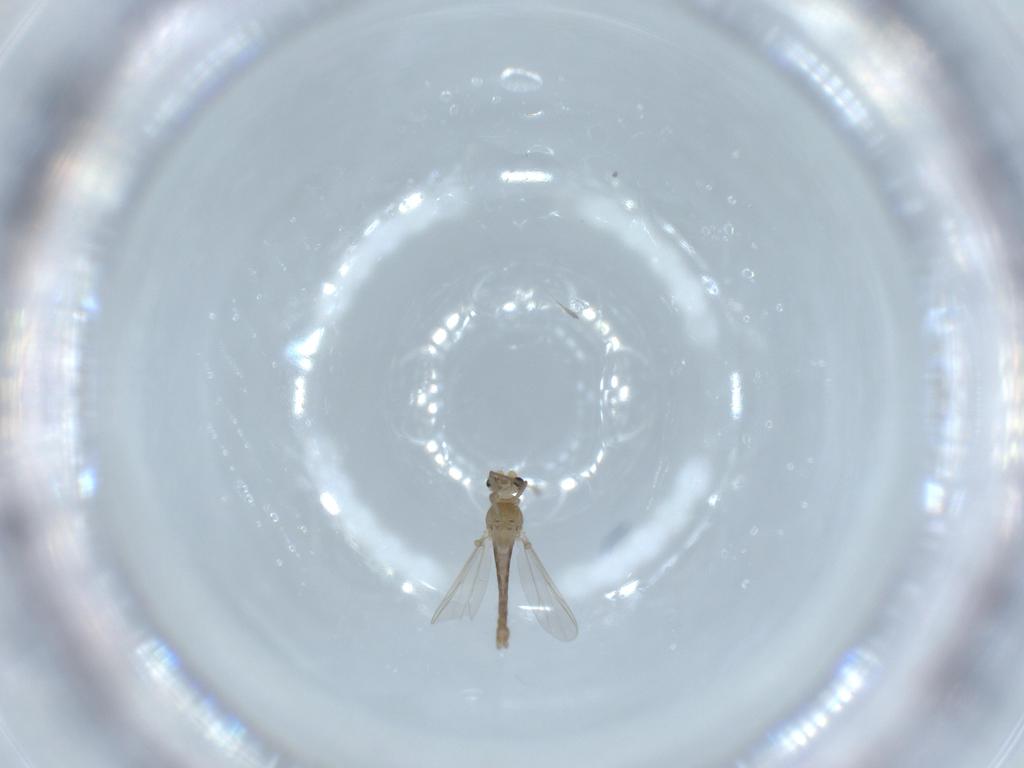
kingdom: Animalia
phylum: Arthropoda
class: Insecta
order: Diptera
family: Chironomidae
